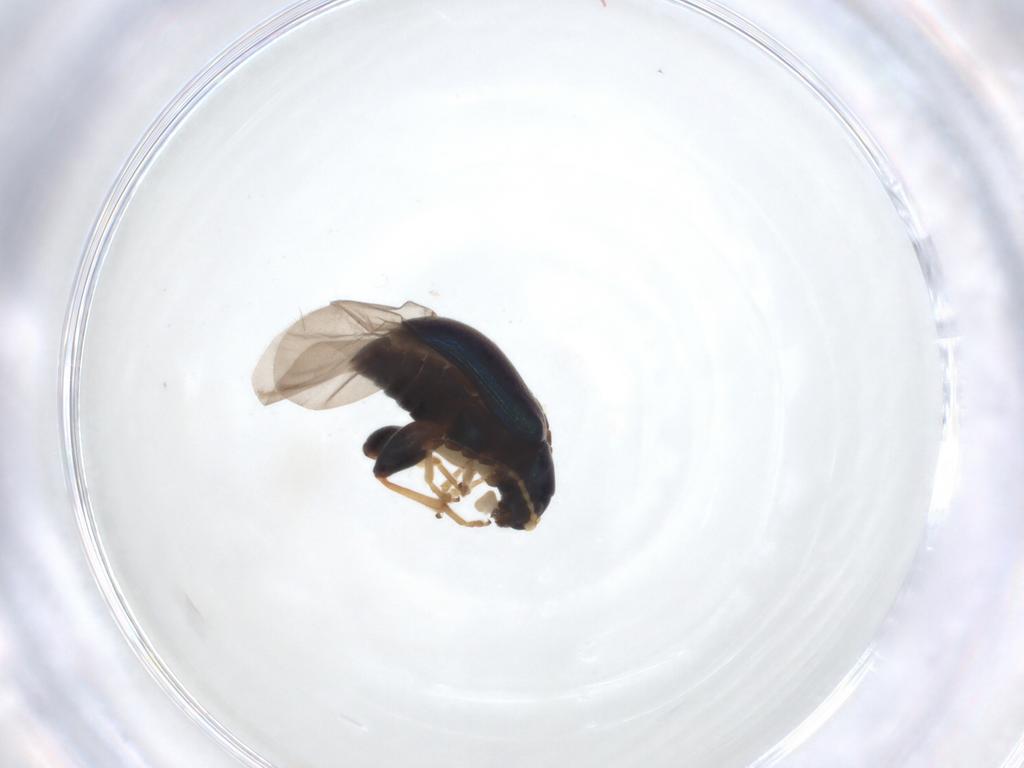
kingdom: Animalia
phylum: Arthropoda
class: Insecta
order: Coleoptera
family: Chrysomelidae
